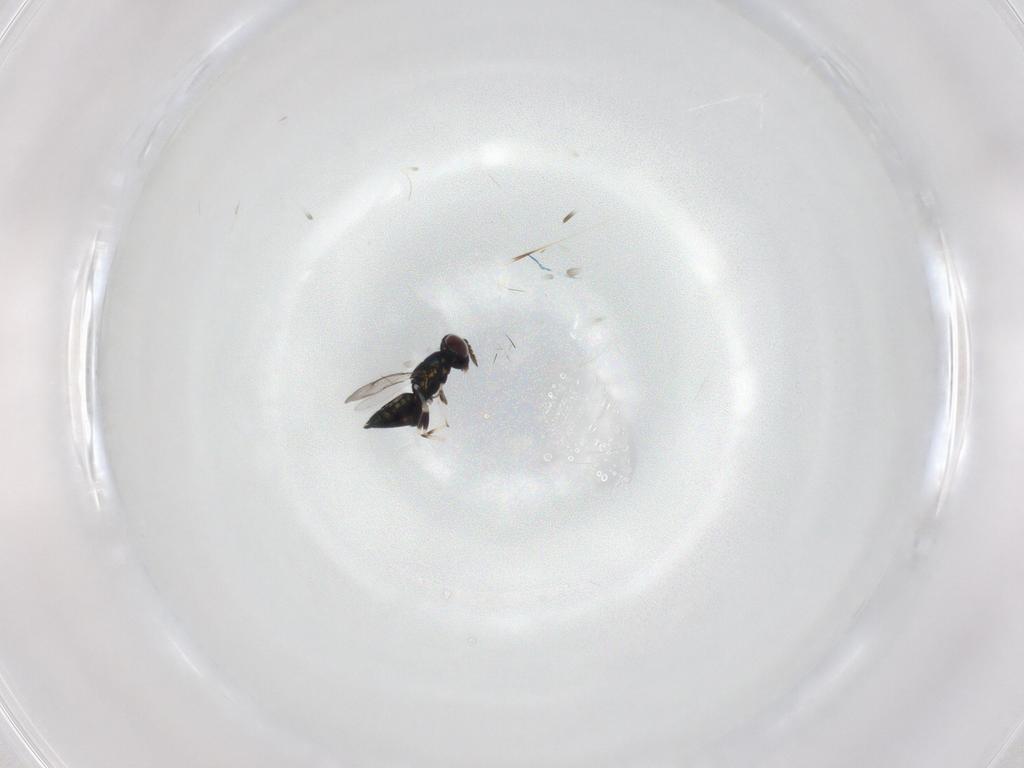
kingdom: Animalia
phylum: Arthropoda
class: Insecta
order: Hymenoptera
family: Eulophidae
